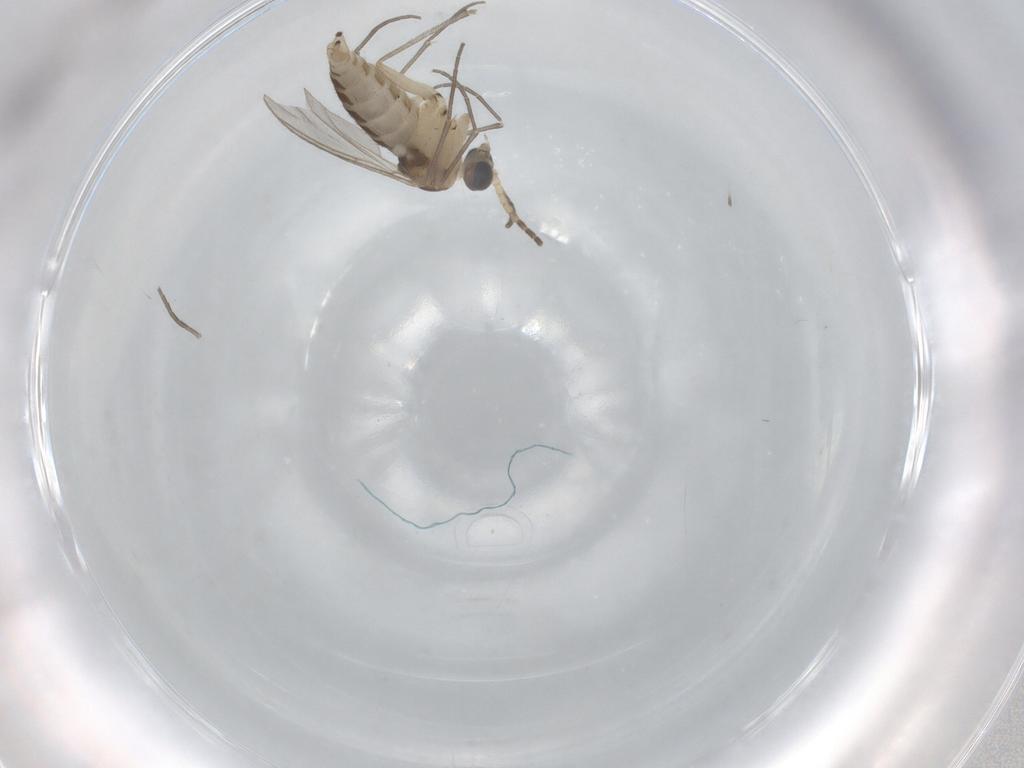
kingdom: Animalia
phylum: Arthropoda
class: Insecta
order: Diptera
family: Sciaridae
